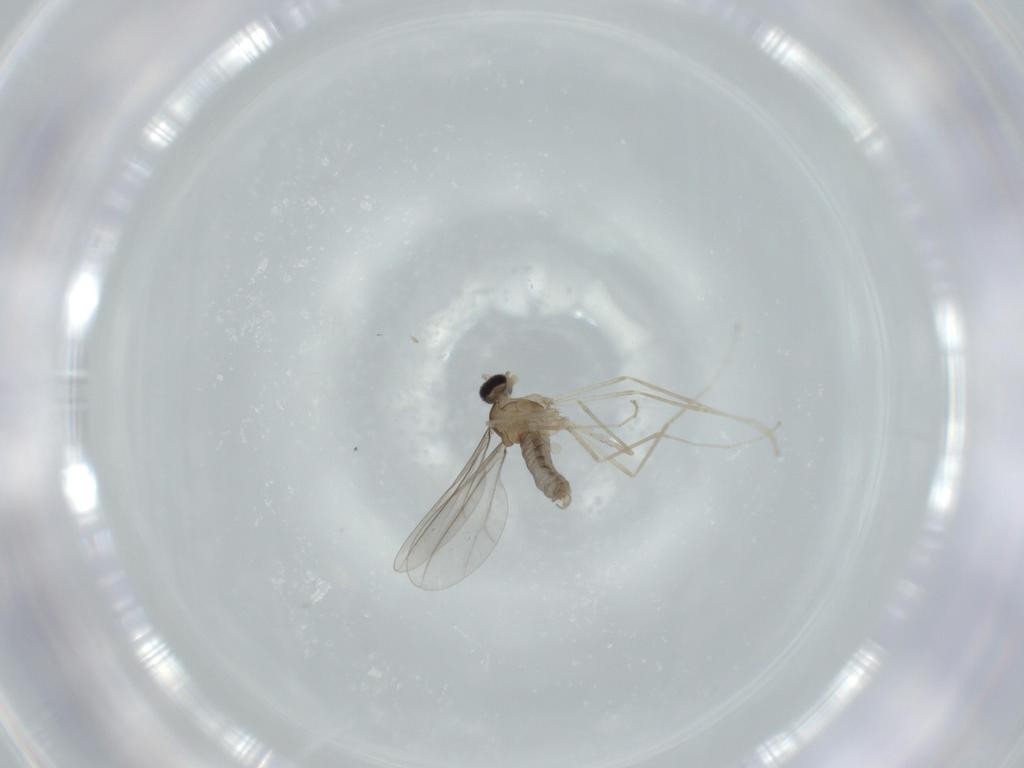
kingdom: Animalia
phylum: Arthropoda
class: Insecta
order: Diptera
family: Cecidomyiidae
